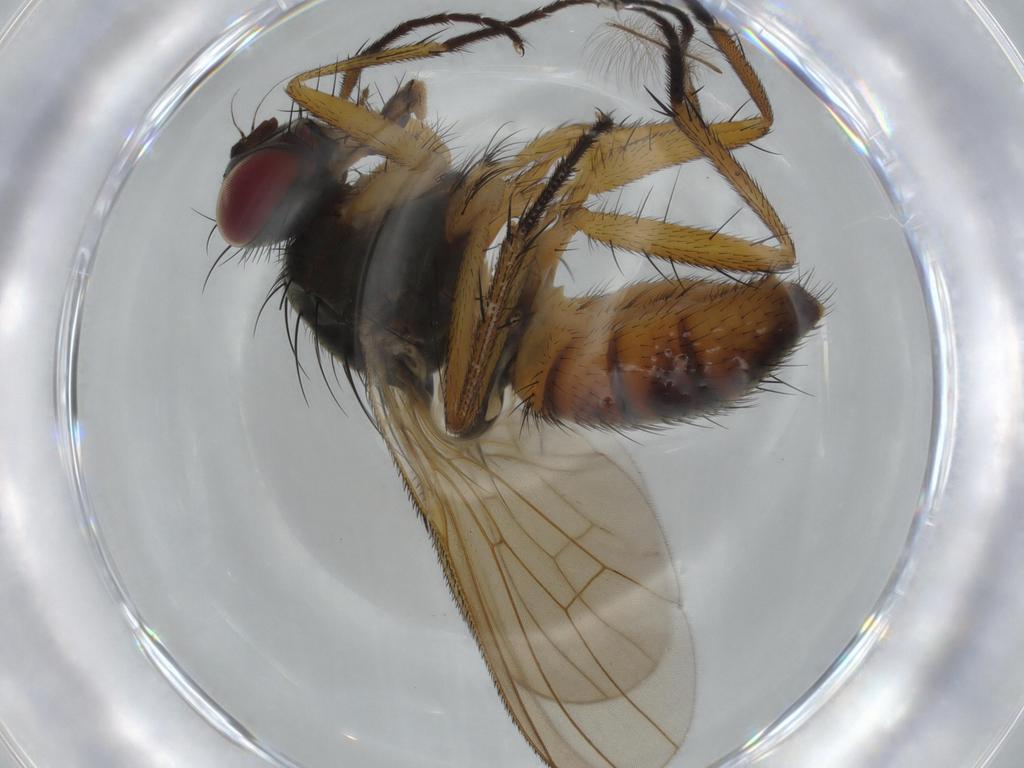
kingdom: Animalia
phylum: Arthropoda
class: Insecta
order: Diptera
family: Muscidae
